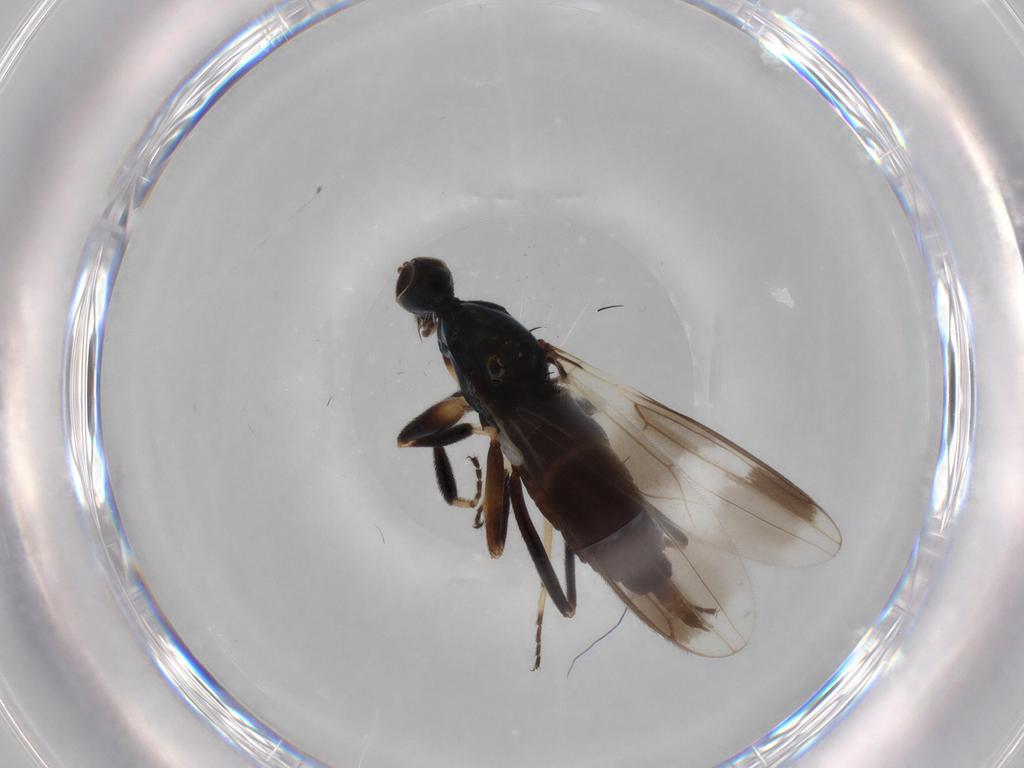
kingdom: Animalia
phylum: Arthropoda
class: Insecta
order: Diptera
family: Hybotidae
